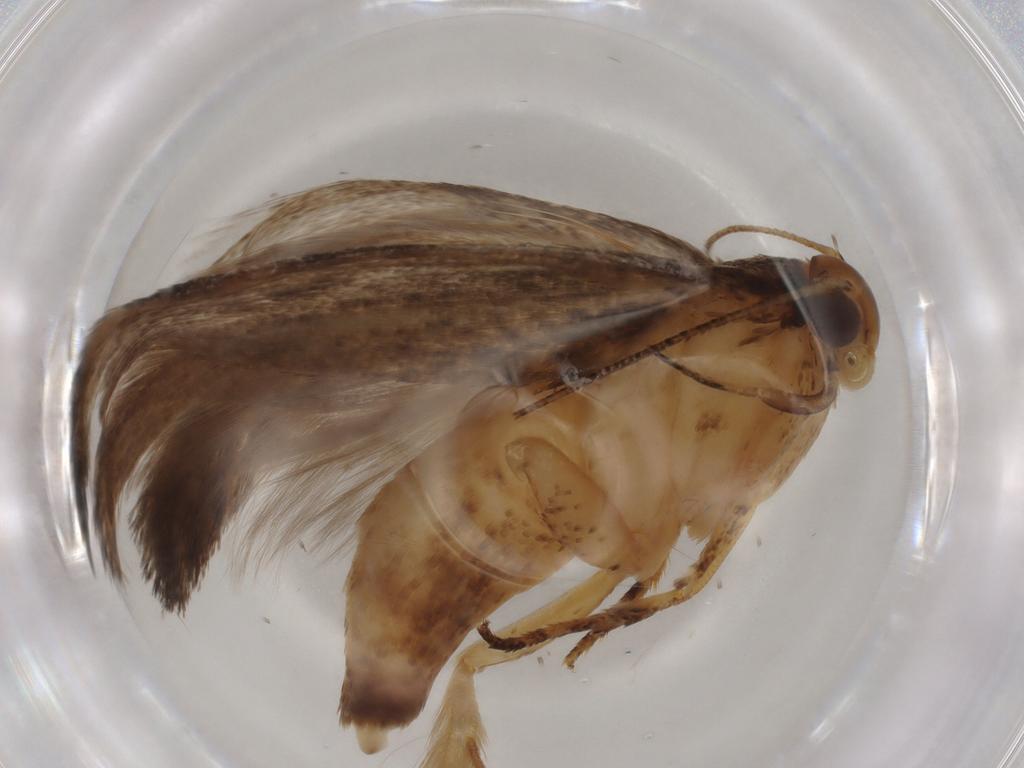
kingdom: Animalia
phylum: Arthropoda
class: Insecta
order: Lepidoptera
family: Gelechiidae
